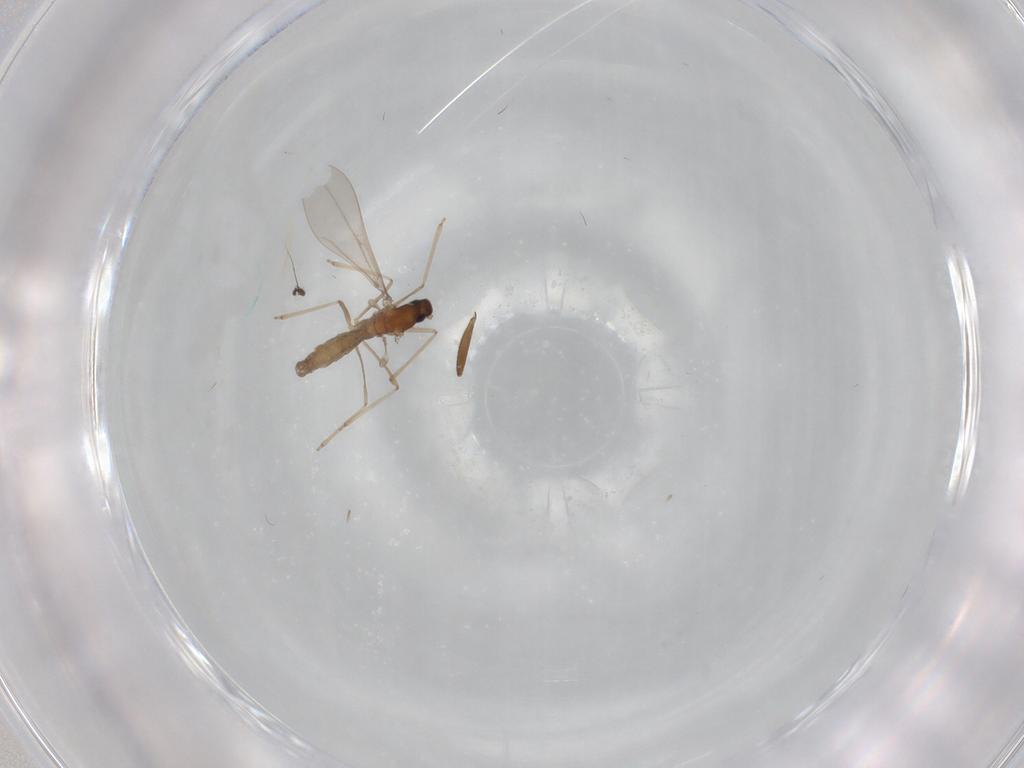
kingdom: Animalia
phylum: Arthropoda
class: Insecta
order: Diptera
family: Sciaridae
